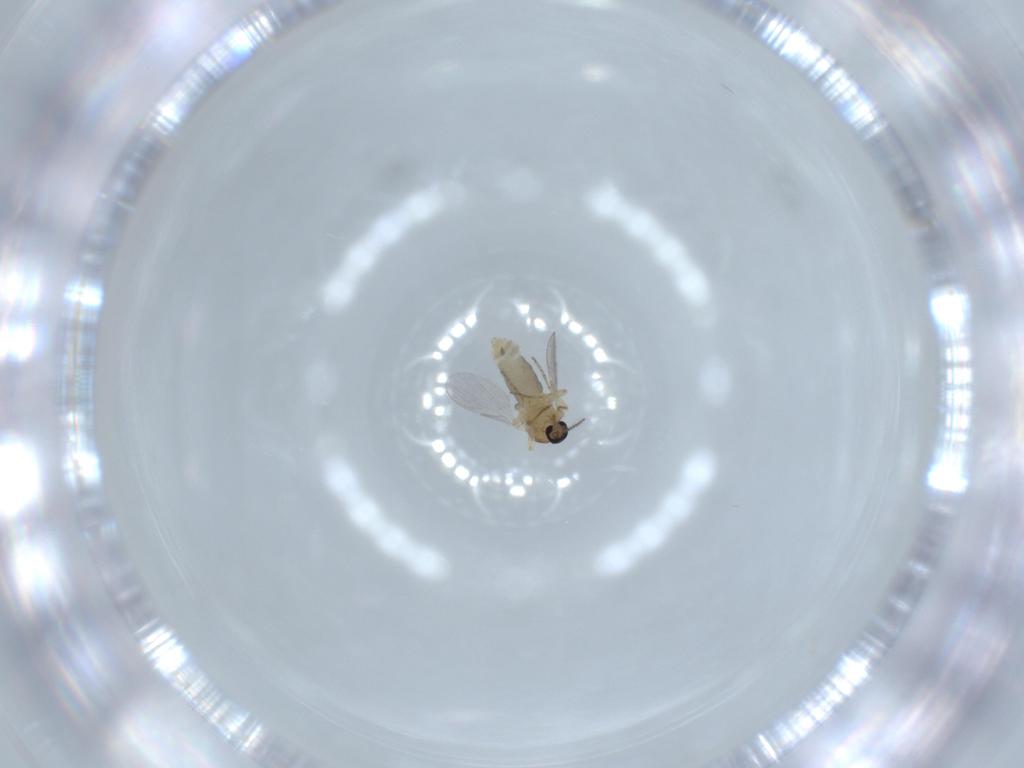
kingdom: Animalia
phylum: Arthropoda
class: Insecta
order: Diptera
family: Ceratopogonidae
